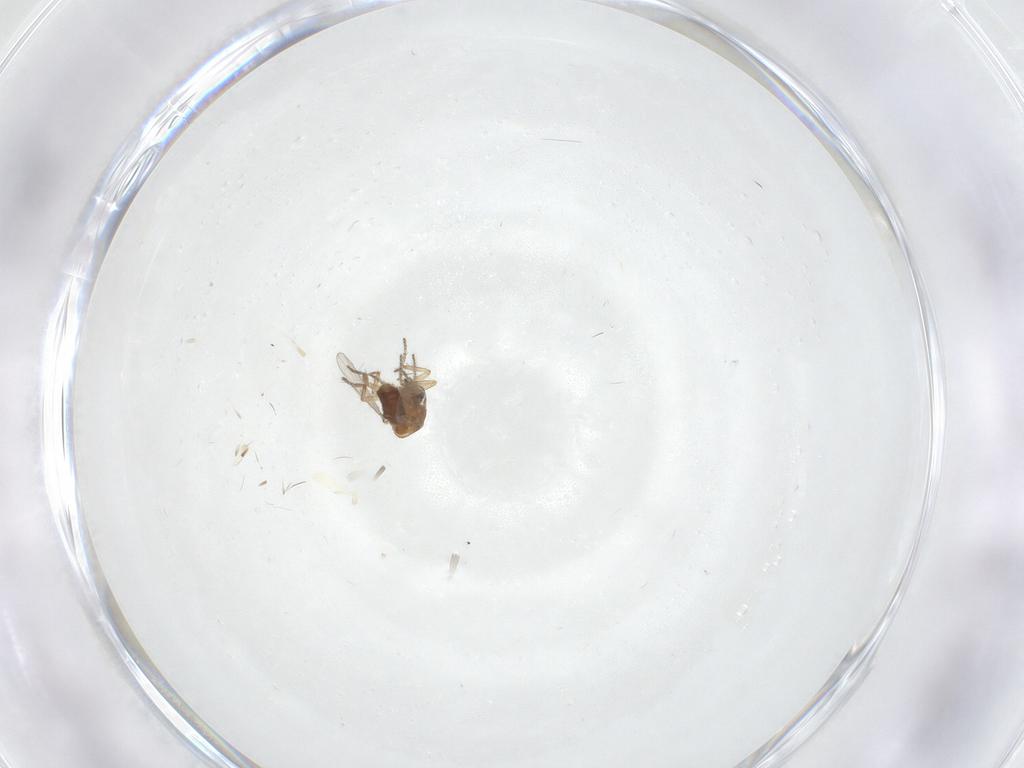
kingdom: Animalia
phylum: Arthropoda
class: Insecta
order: Diptera
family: Ceratopogonidae
